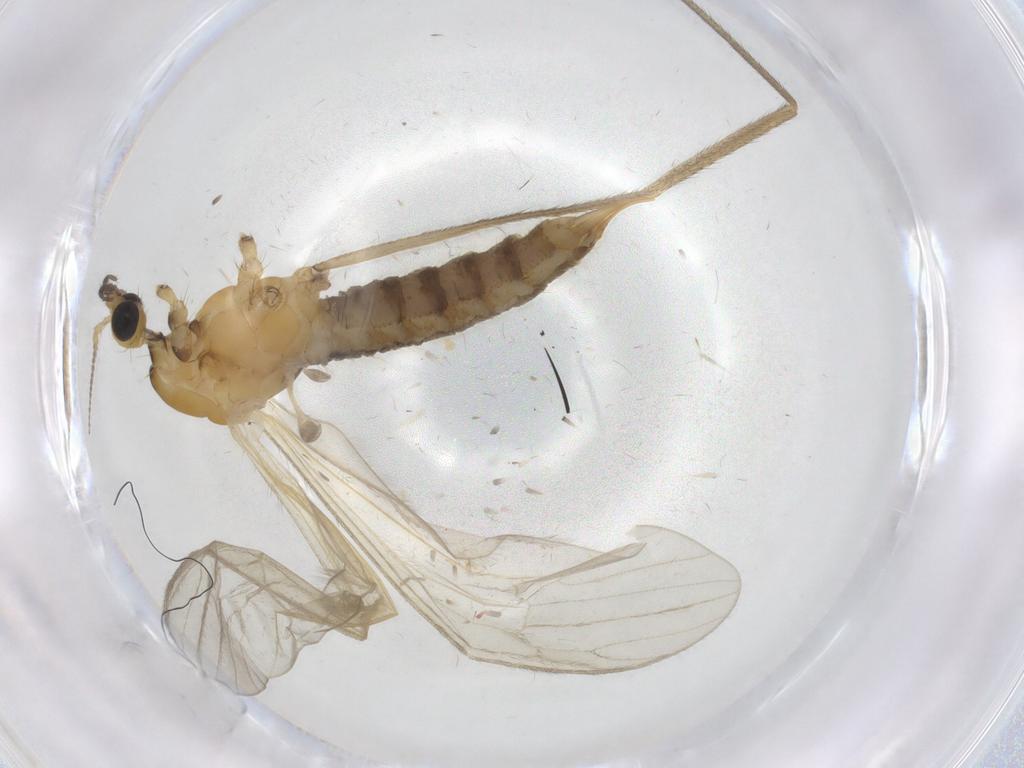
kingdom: Animalia
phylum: Arthropoda
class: Insecta
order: Diptera
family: Limoniidae
